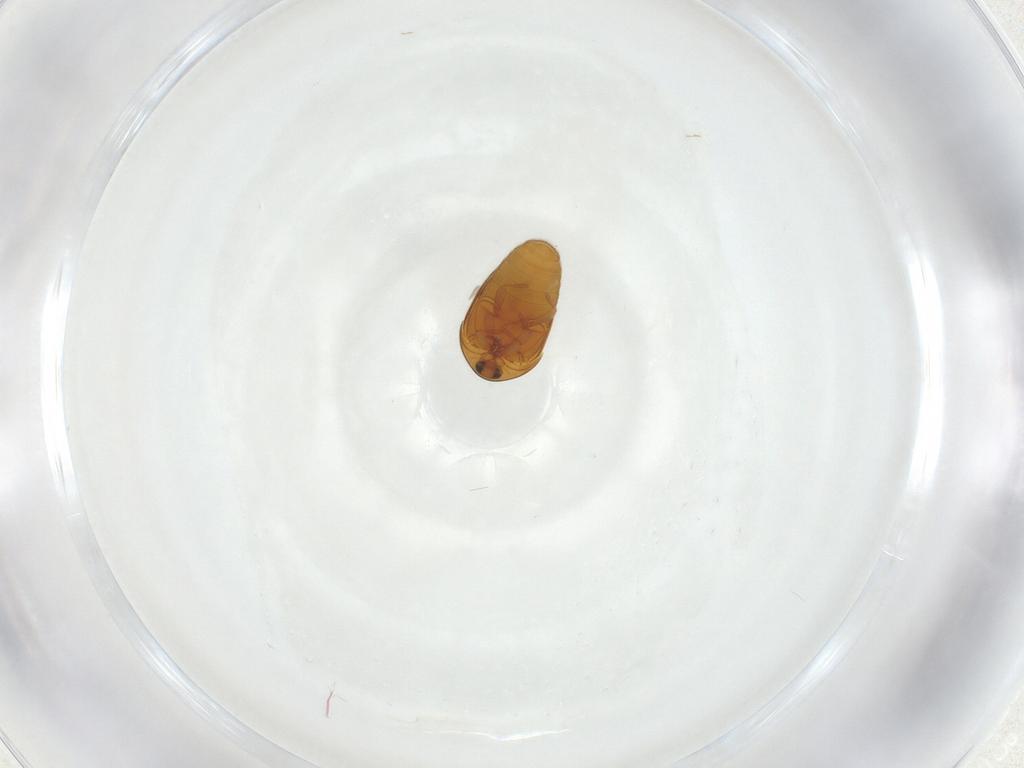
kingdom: Animalia
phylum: Arthropoda
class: Insecta
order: Coleoptera
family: Corylophidae
